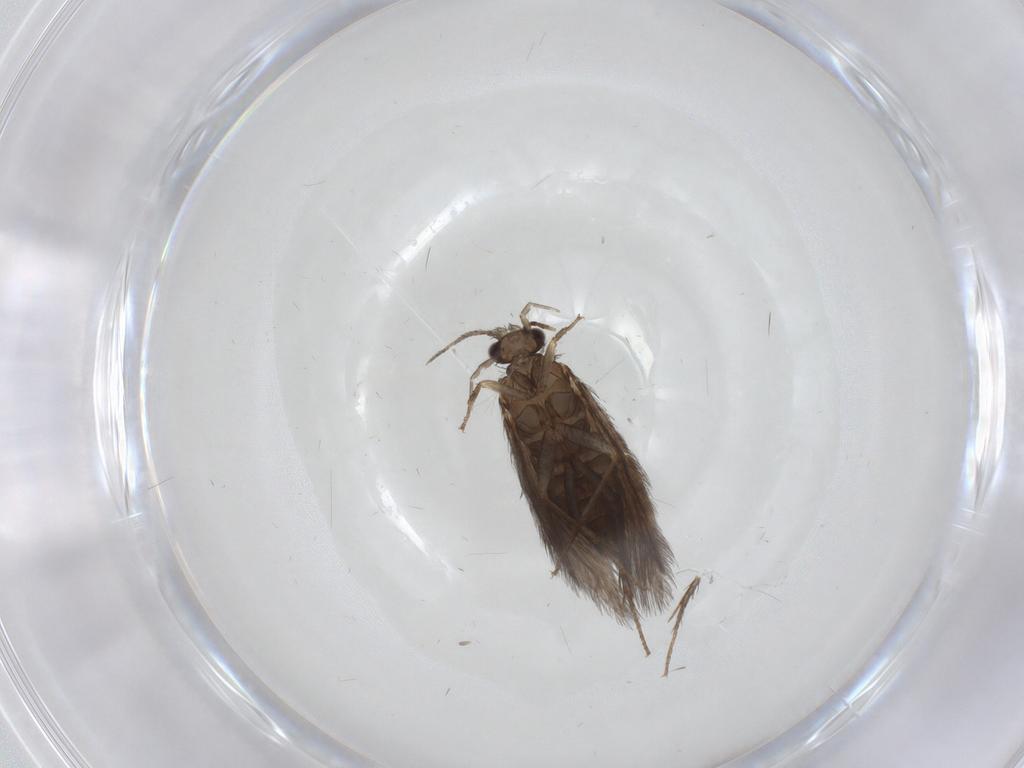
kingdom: Animalia
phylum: Arthropoda
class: Insecta
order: Trichoptera
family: Hydroptilidae
